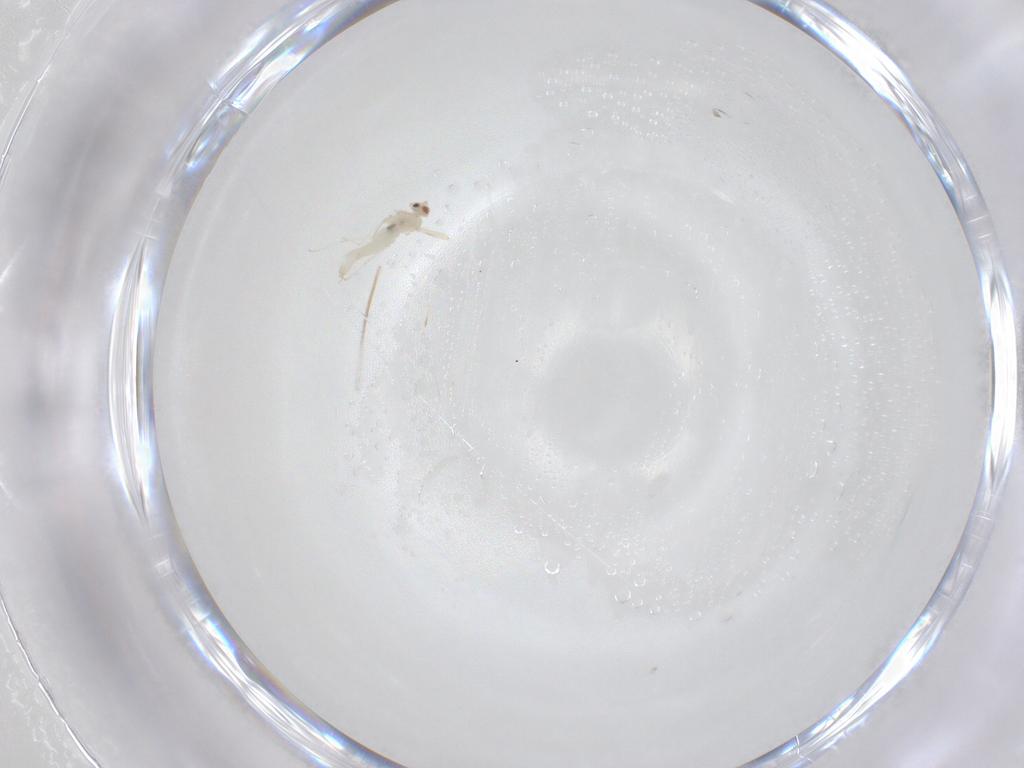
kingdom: Animalia
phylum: Arthropoda
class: Insecta
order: Diptera
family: Cecidomyiidae
